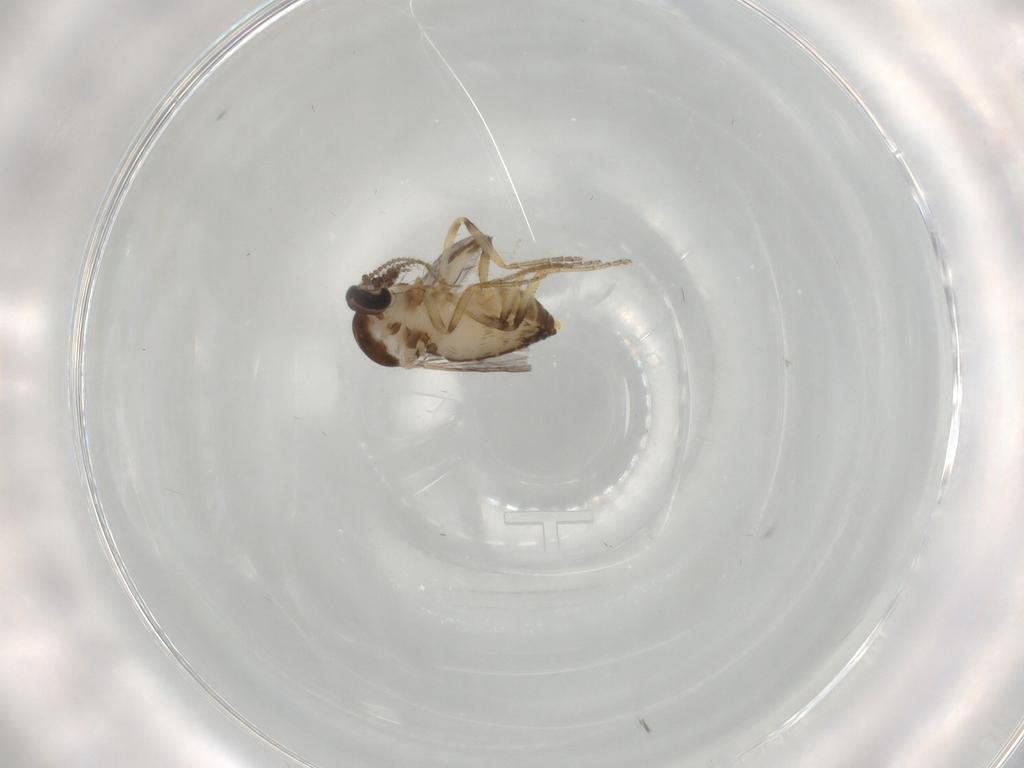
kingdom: Animalia
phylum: Arthropoda
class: Insecta
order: Diptera
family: Ceratopogonidae
